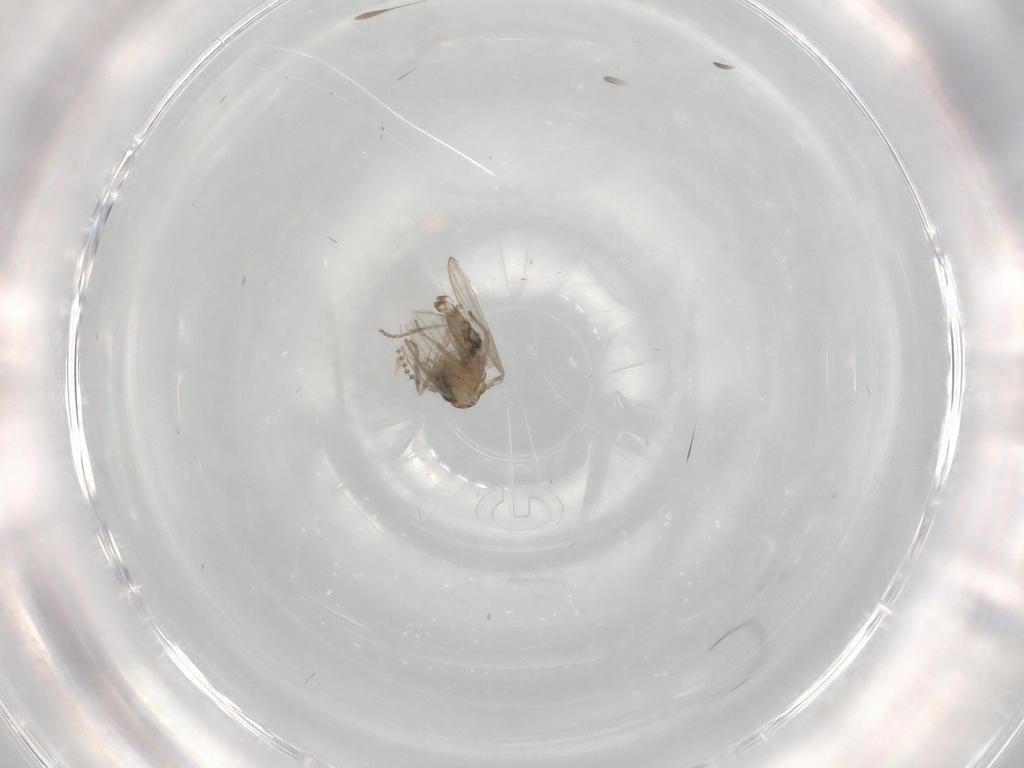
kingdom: Animalia
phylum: Arthropoda
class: Insecta
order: Diptera
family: Psychodidae
